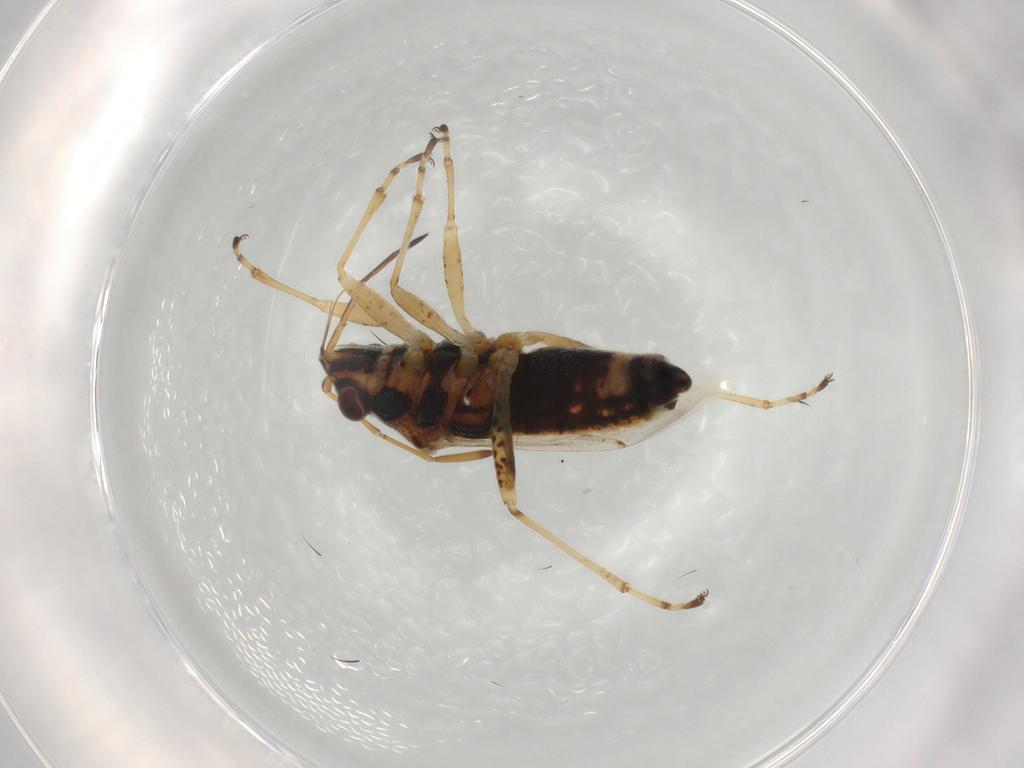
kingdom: Animalia
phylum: Arthropoda
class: Insecta
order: Hemiptera
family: Lygaeidae
